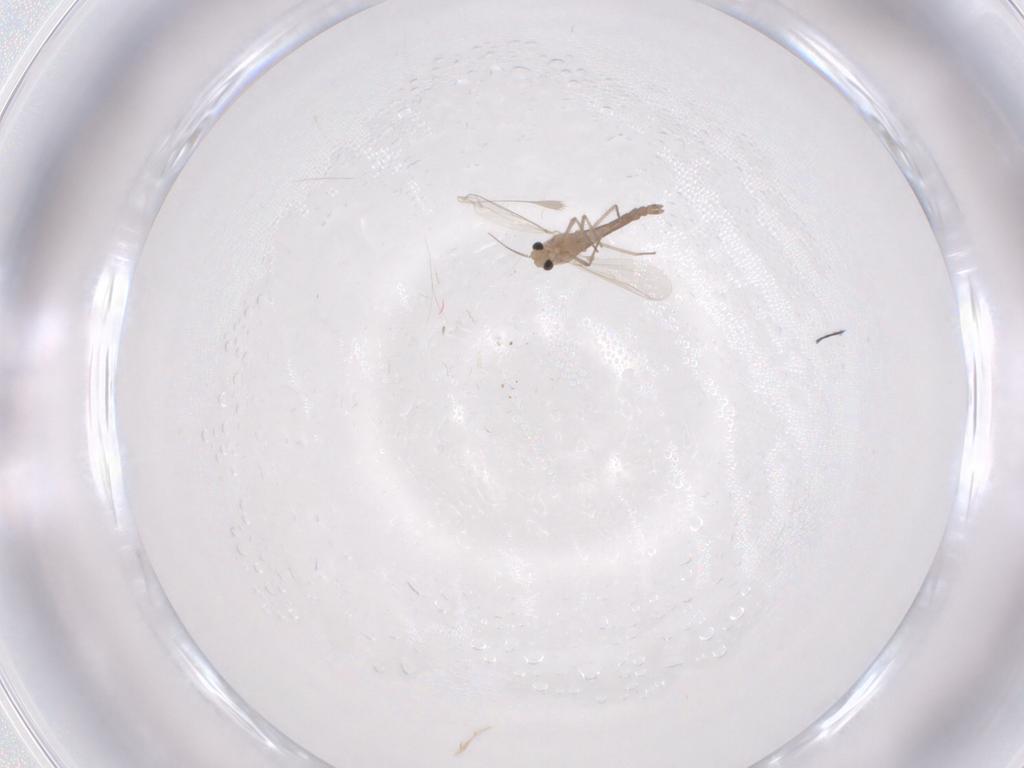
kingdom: Animalia
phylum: Arthropoda
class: Insecta
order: Diptera
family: Chironomidae
